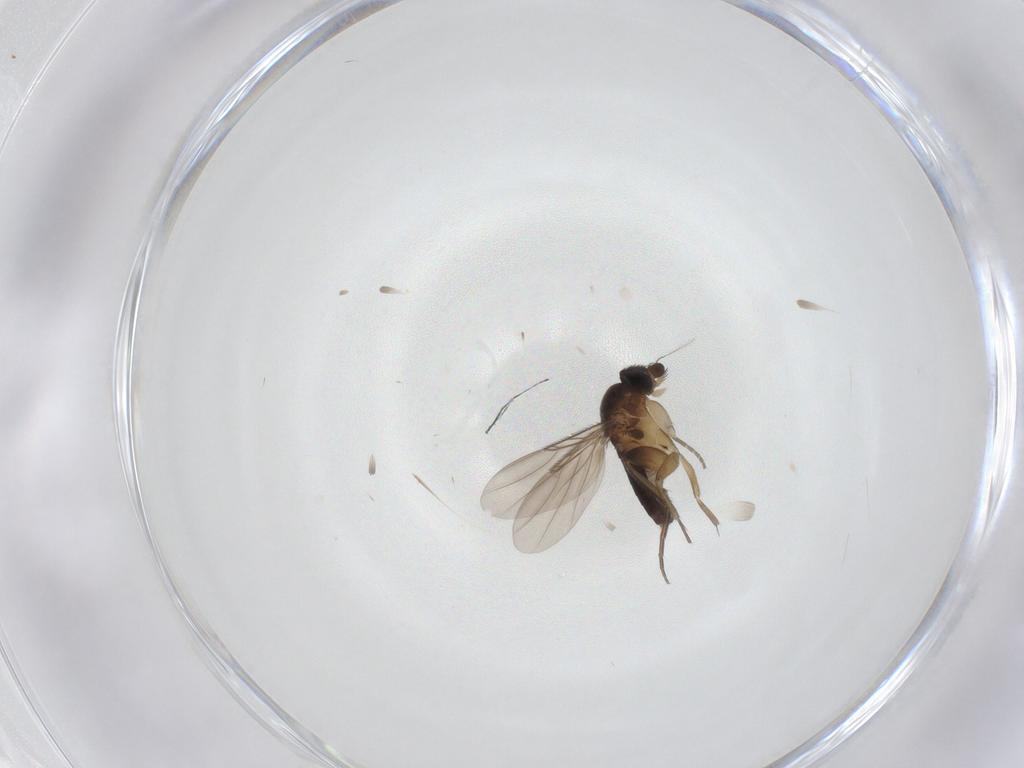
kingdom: Animalia
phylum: Arthropoda
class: Insecta
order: Diptera
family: Phoridae
